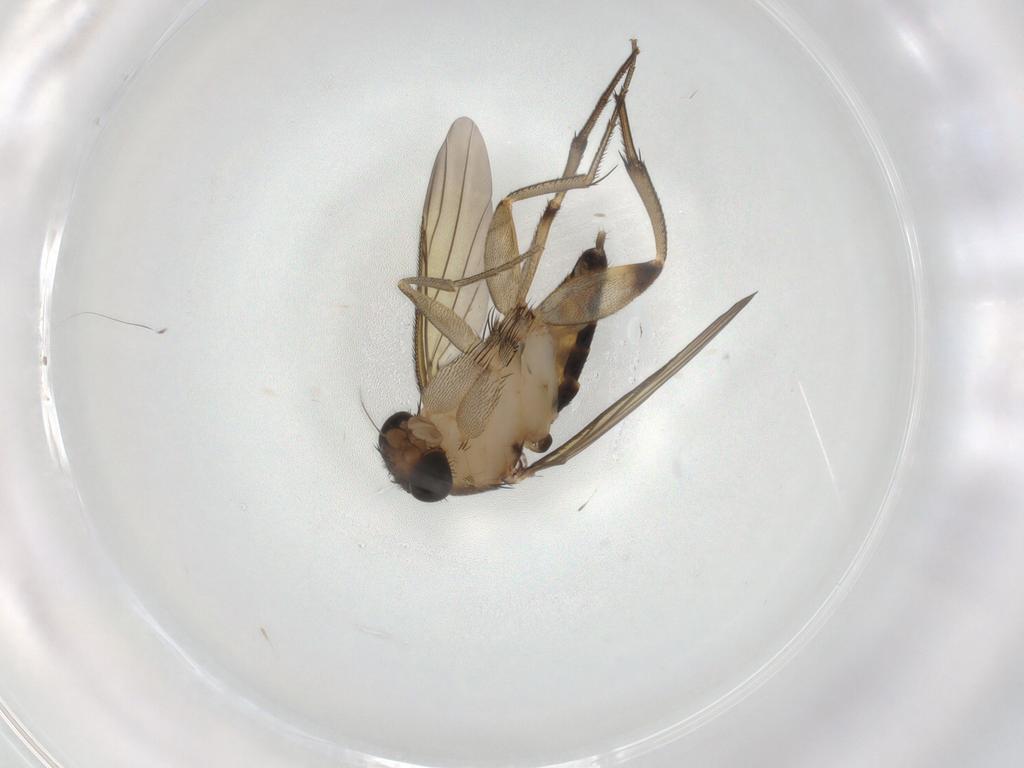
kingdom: Animalia
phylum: Arthropoda
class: Insecta
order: Diptera
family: Phoridae
